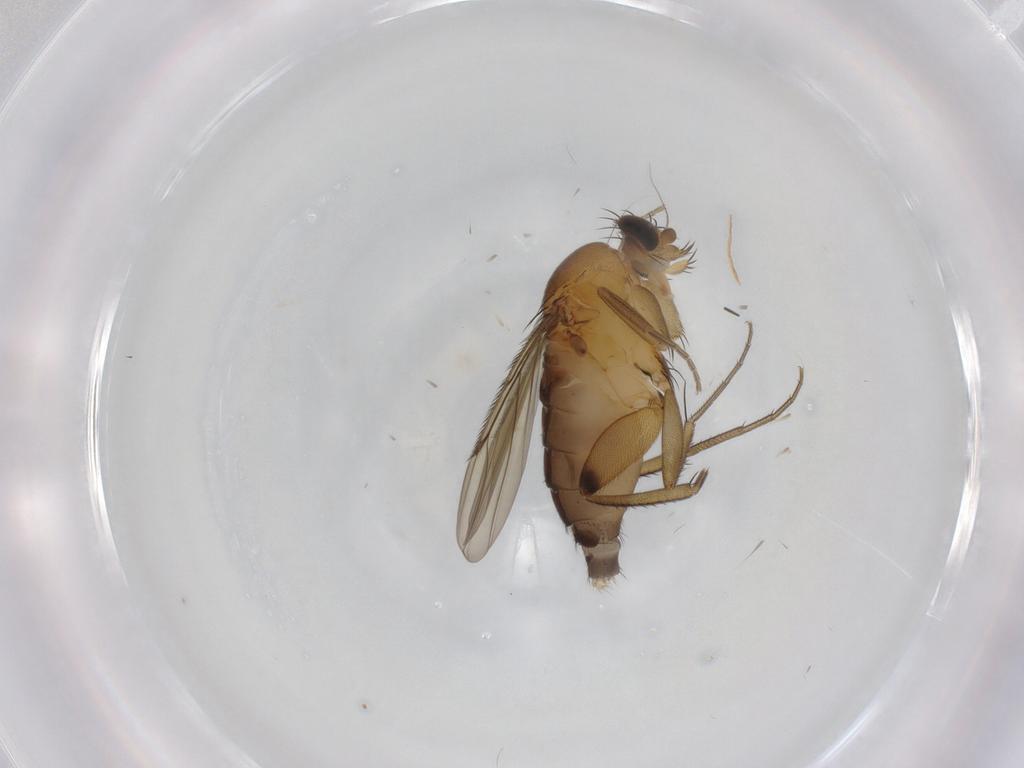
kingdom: Animalia
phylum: Arthropoda
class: Insecta
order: Diptera
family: Phoridae
